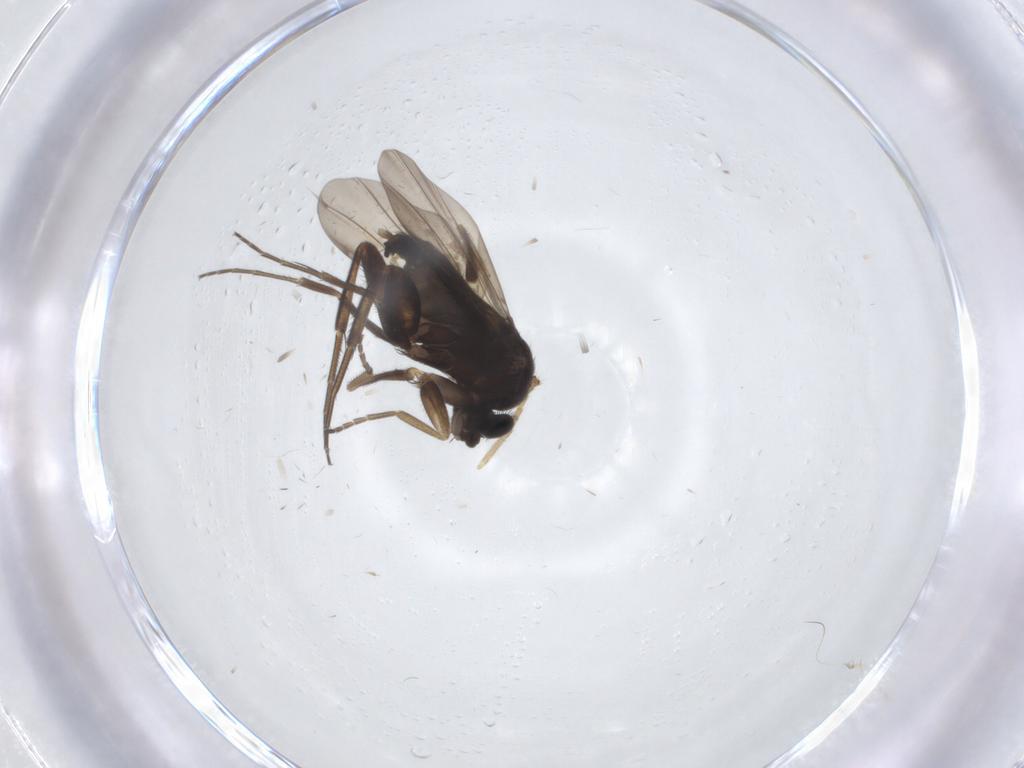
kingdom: Animalia
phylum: Arthropoda
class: Insecta
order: Diptera
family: Phoridae
